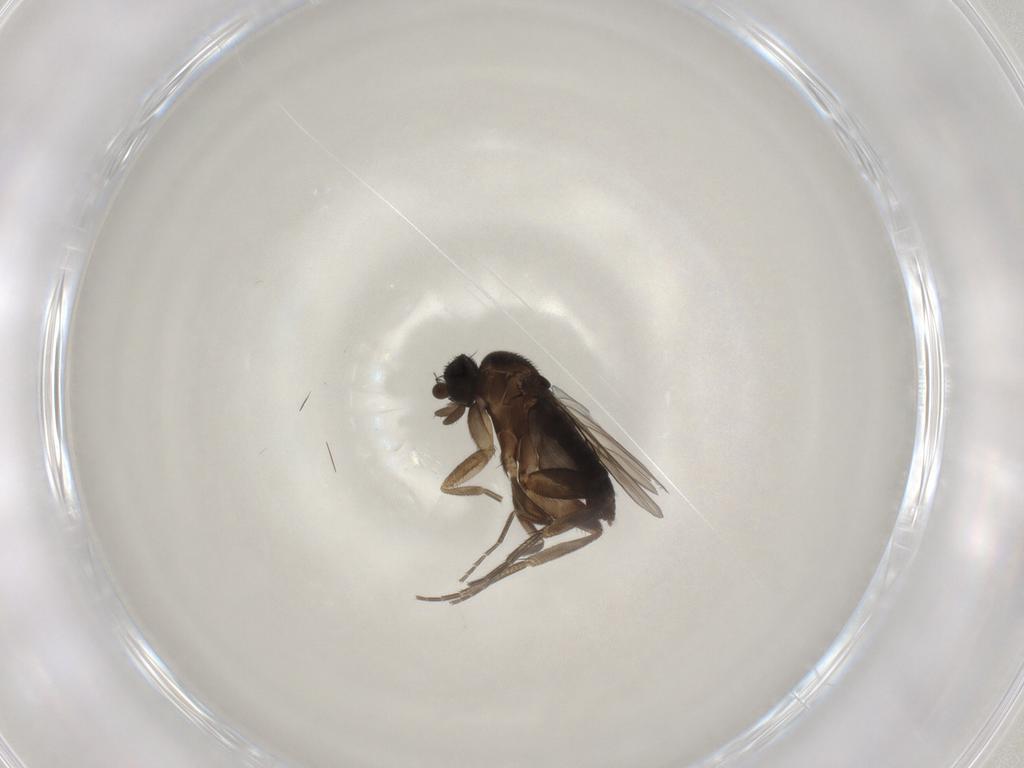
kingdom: Animalia
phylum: Arthropoda
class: Insecta
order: Diptera
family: Phoridae
